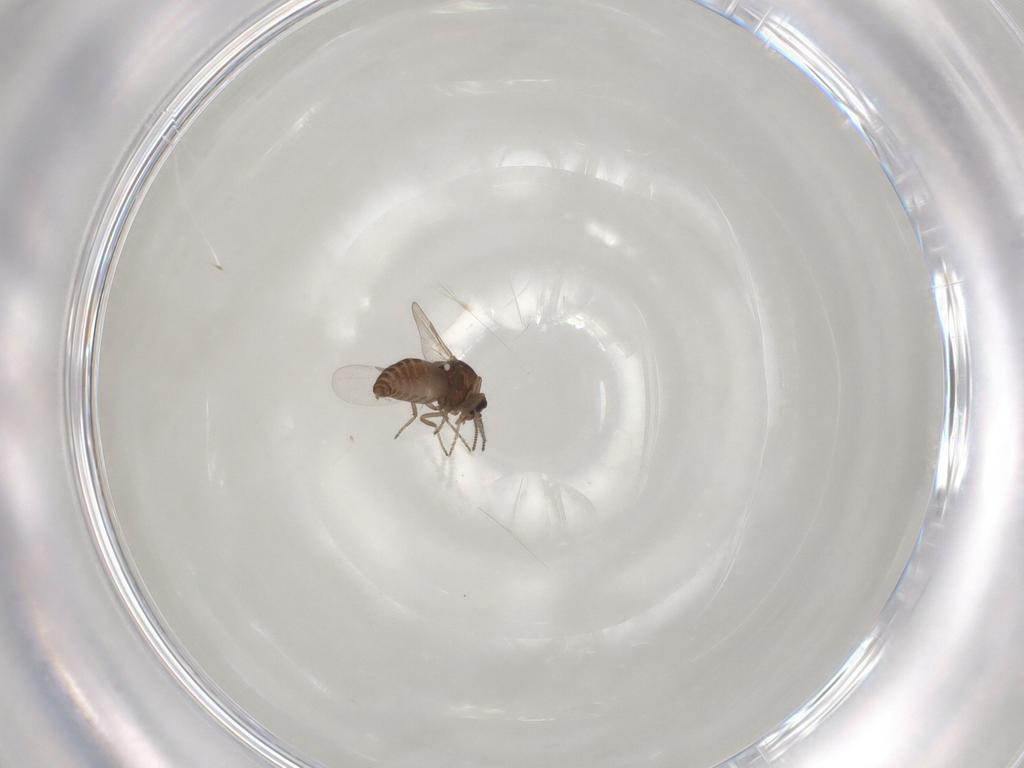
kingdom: Animalia
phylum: Arthropoda
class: Insecta
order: Diptera
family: Ceratopogonidae
